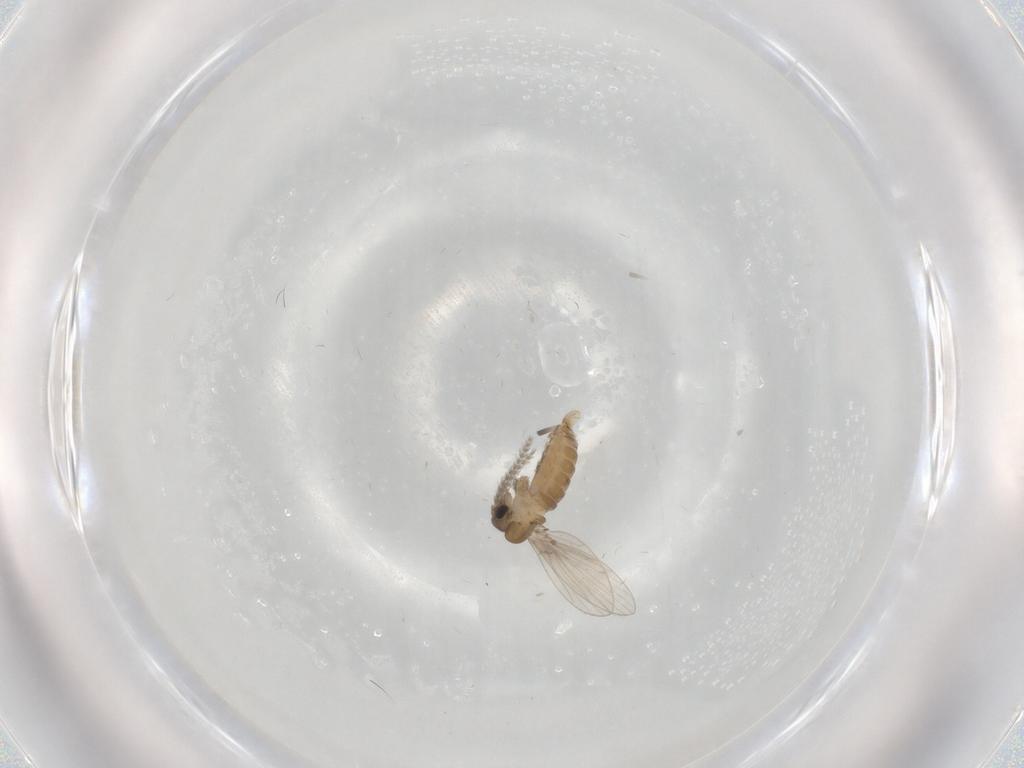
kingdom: Animalia
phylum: Arthropoda
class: Insecta
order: Diptera
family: Psychodidae
